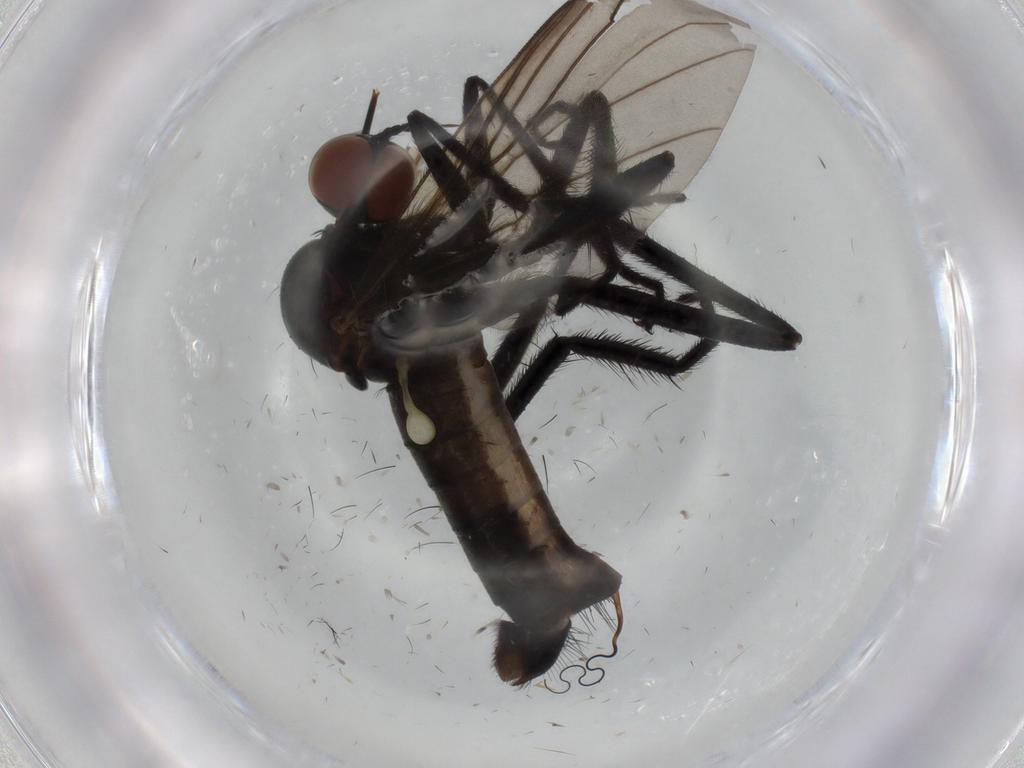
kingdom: Animalia
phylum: Arthropoda
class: Insecta
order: Diptera
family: Empididae
